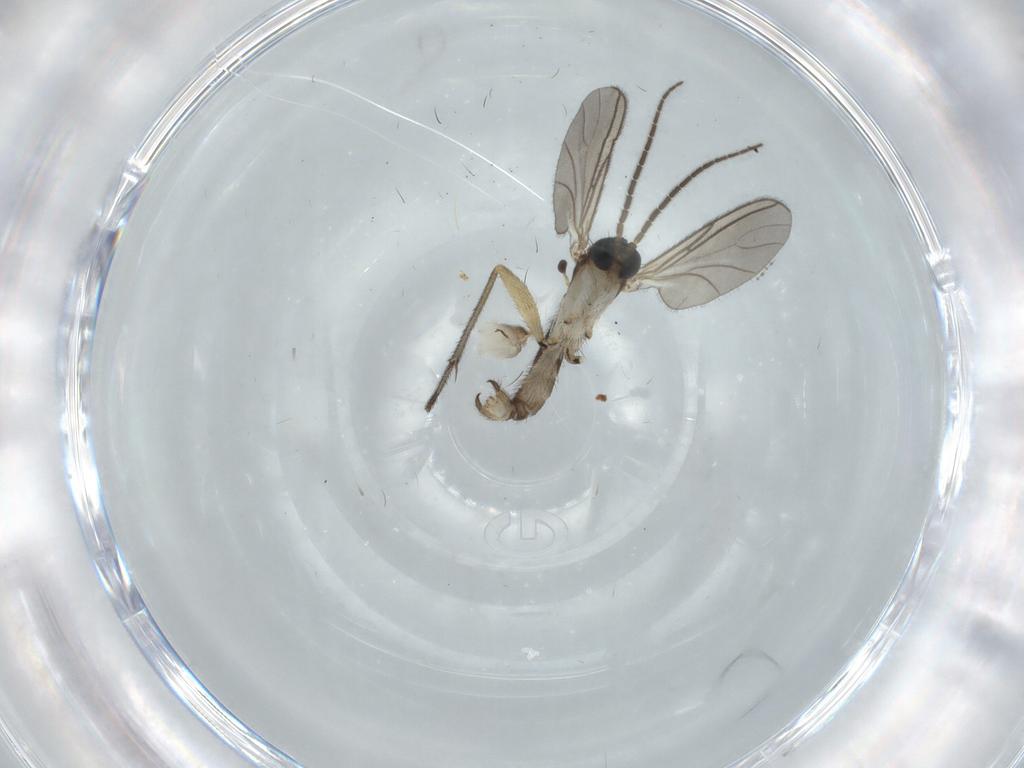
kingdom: Animalia
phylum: Arthropoda
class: Insecta
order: Diptera
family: Sciaridae
